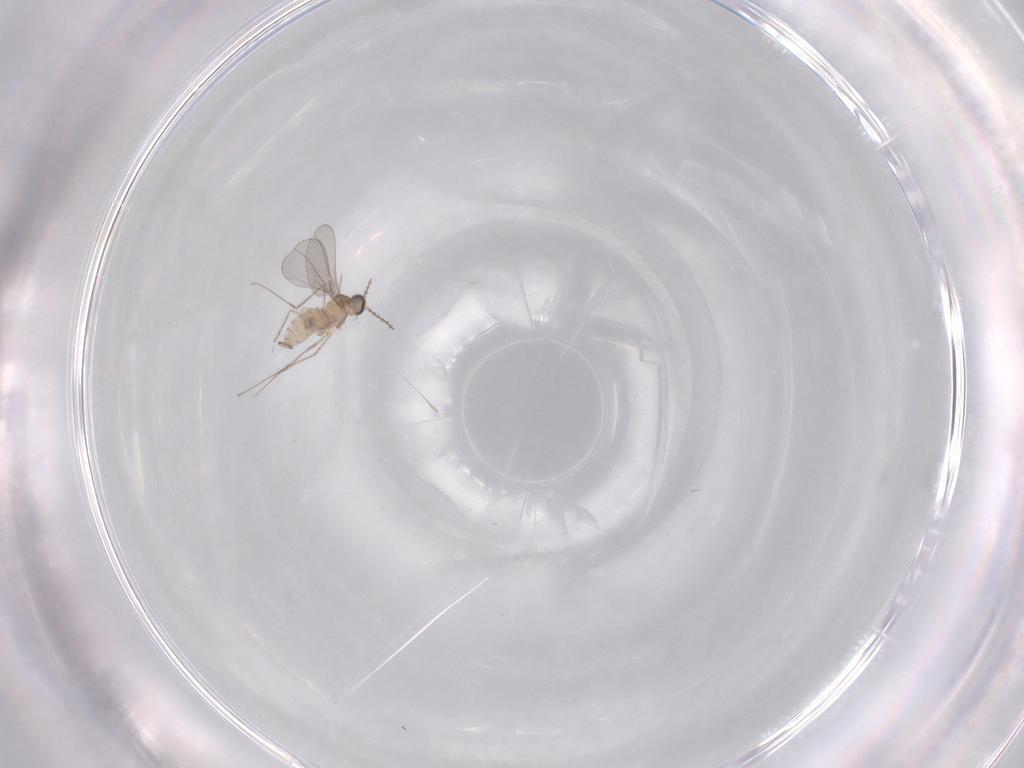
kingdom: Animalia
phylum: Arthropoda
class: Insecta
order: Diptera
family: Cecidomyiidae
